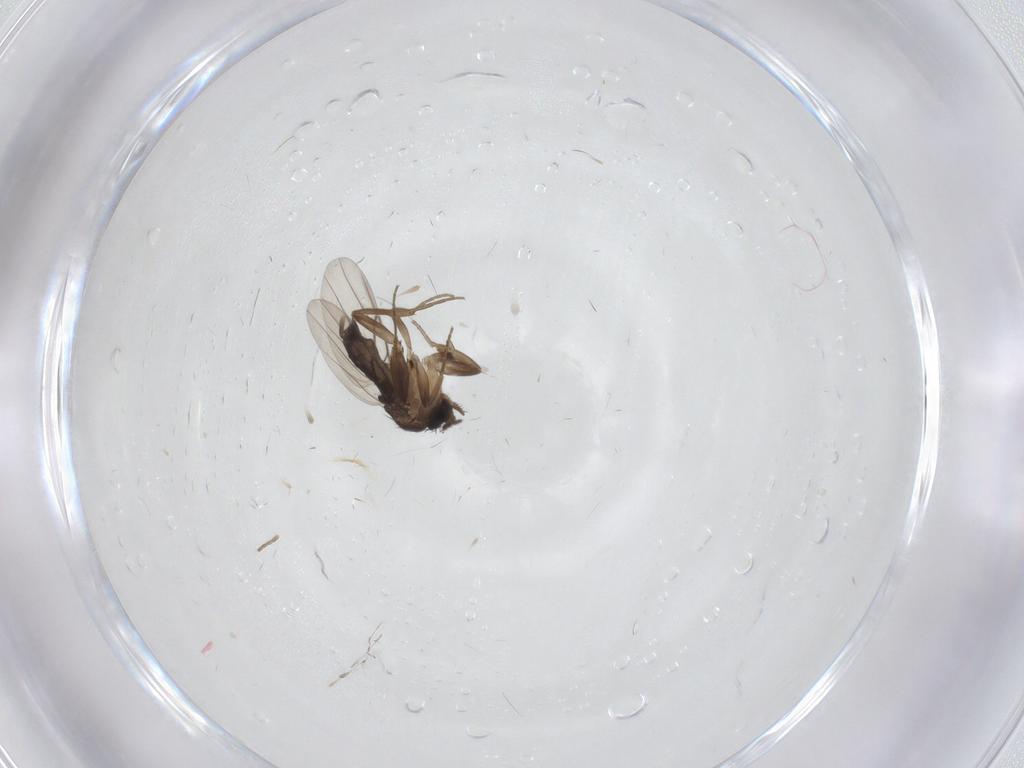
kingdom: Animalia
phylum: Arthropoda
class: Insecta
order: Diptera
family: Phoridae
